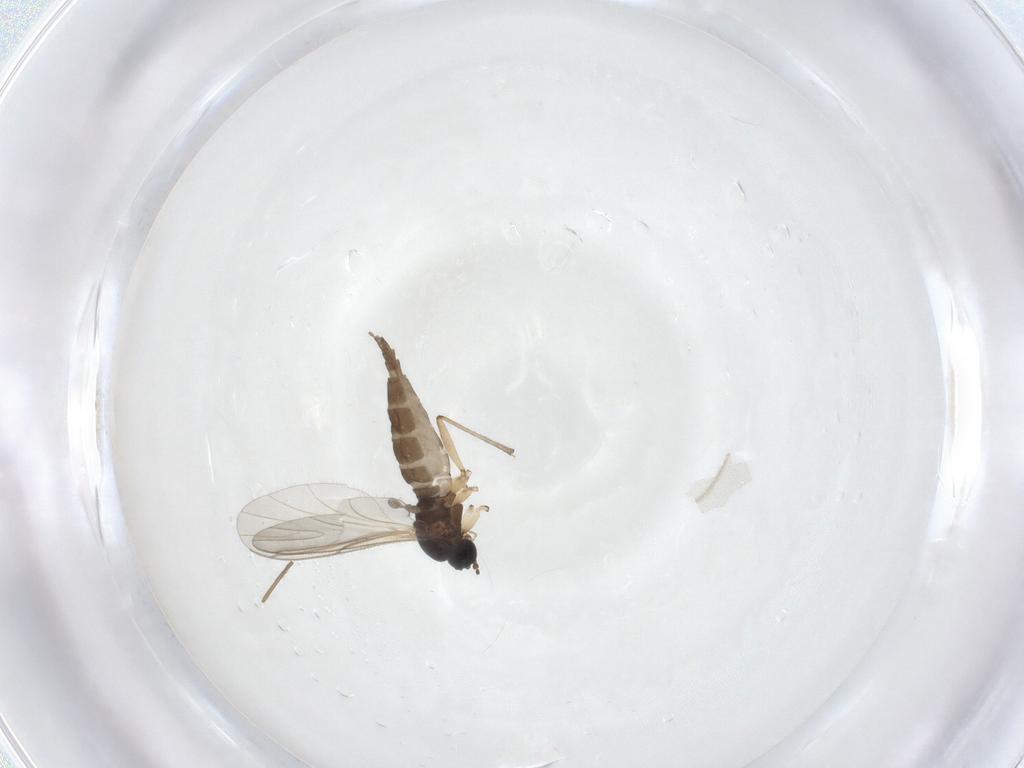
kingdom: Animalia
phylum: Arthropoda
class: Insecta
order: Diptera
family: Sciaridae
